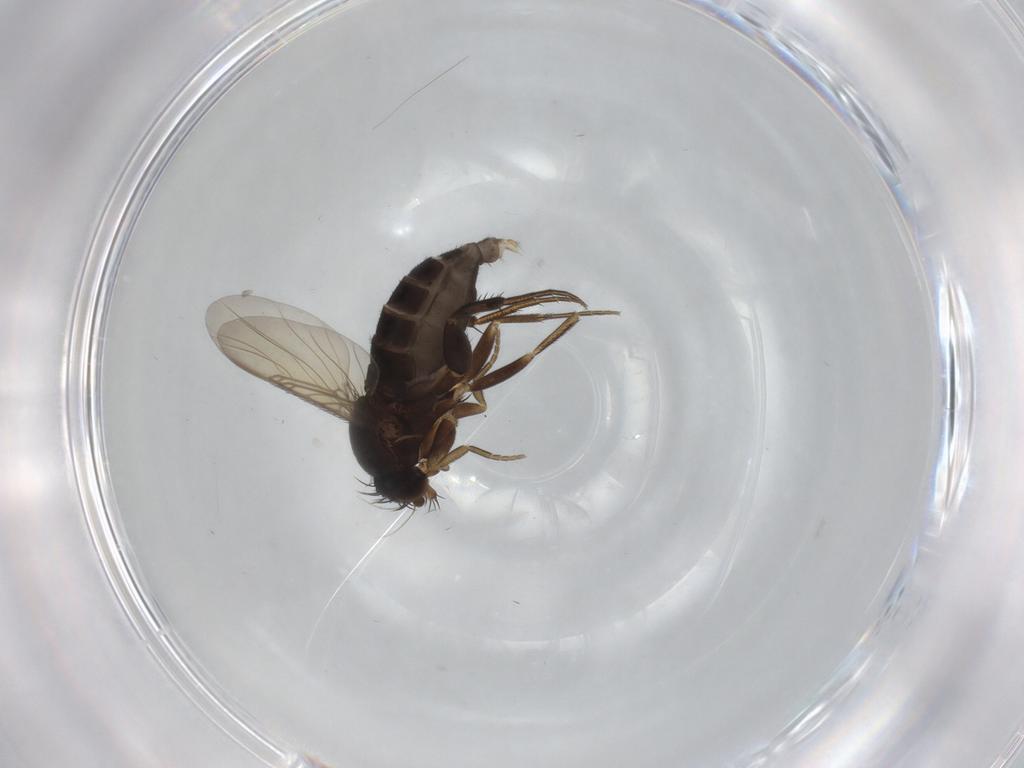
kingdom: Animalia
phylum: Arthropoda
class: Insecta
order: Diptera
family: Phoridae
